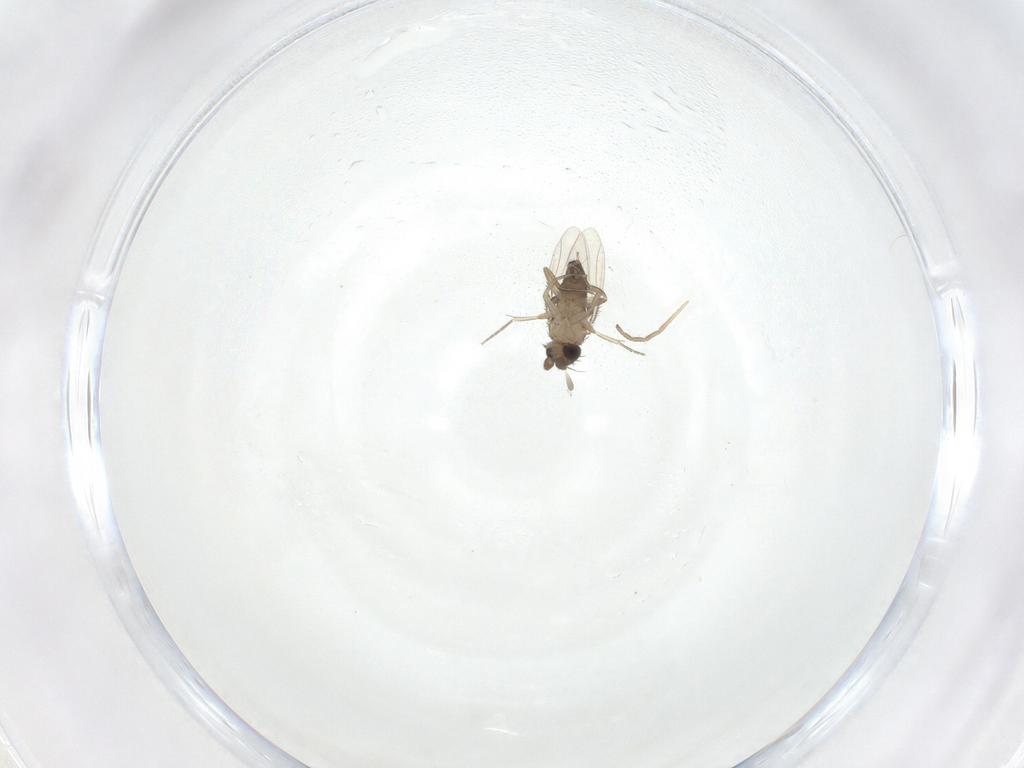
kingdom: Animalia
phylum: Arthropoda
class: Insecta
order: Diptera
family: Phoridae
